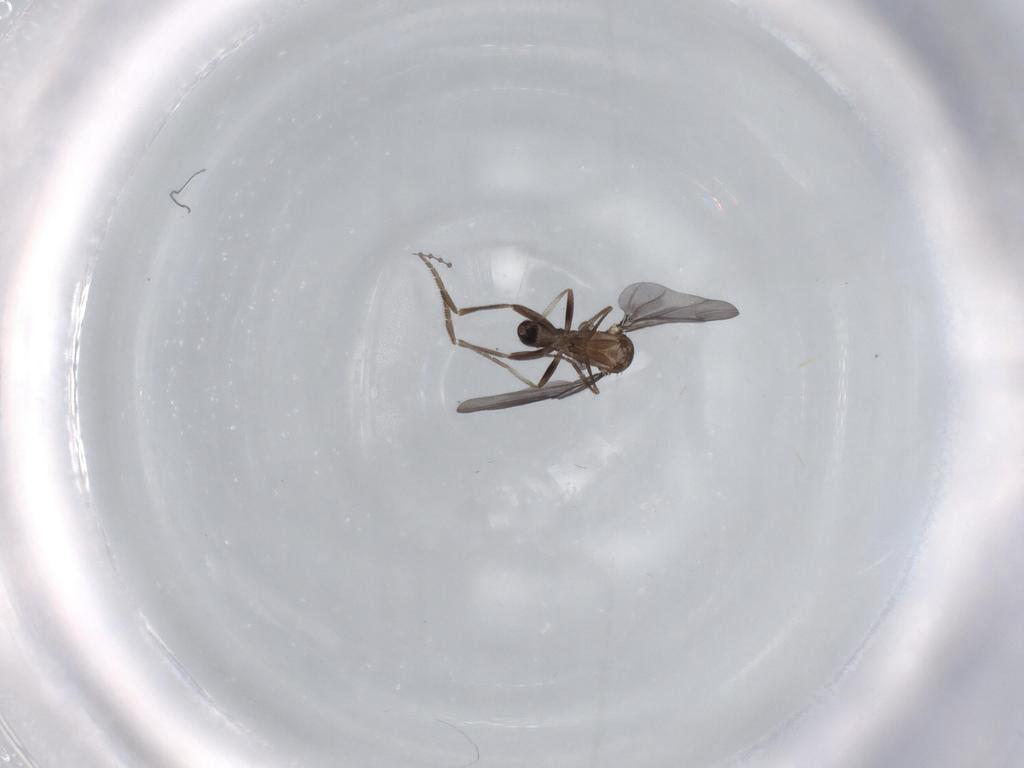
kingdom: Animalia
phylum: Arthropoda
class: Insecta
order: Diptera
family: Phoridae
